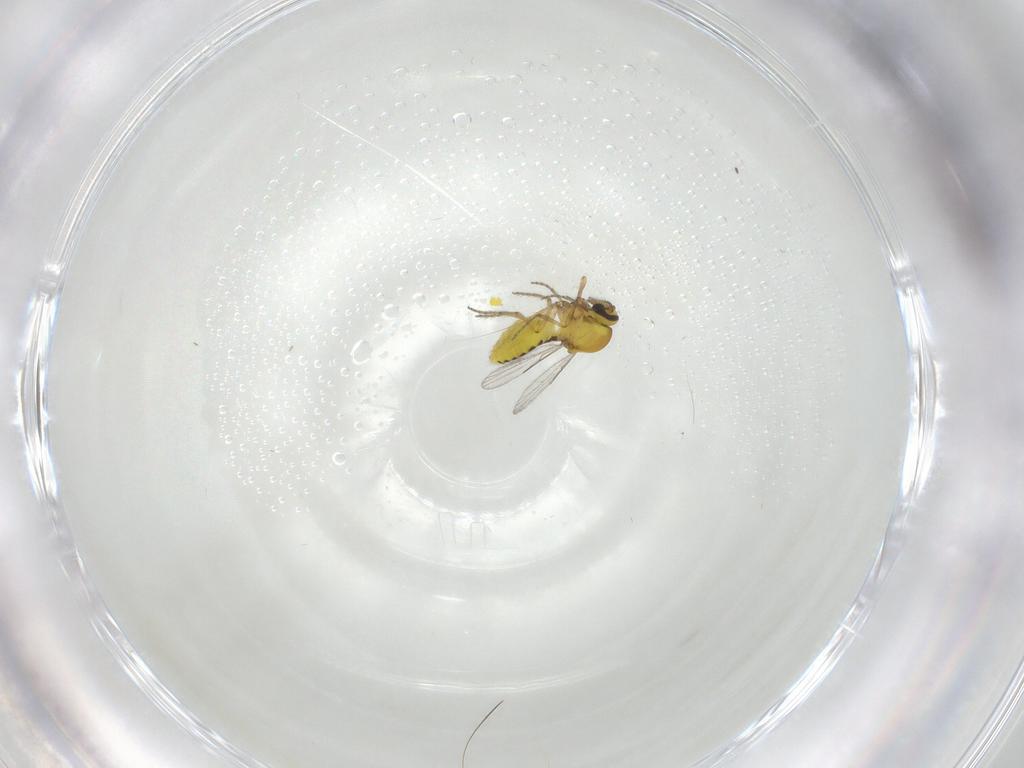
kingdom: Animalia
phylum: Arthropoda
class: Insecta
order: Diptera
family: Ceratopogonidae
